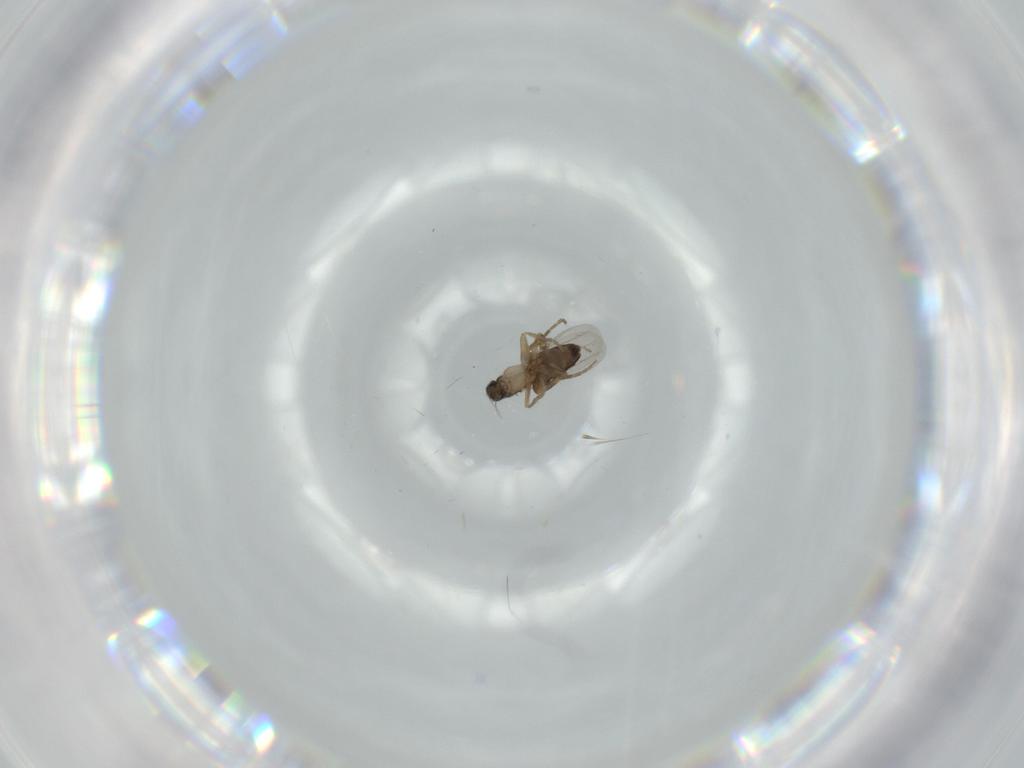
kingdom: Animalia
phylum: Arthropoda
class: Insecta
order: Diptera
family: Phoridae
